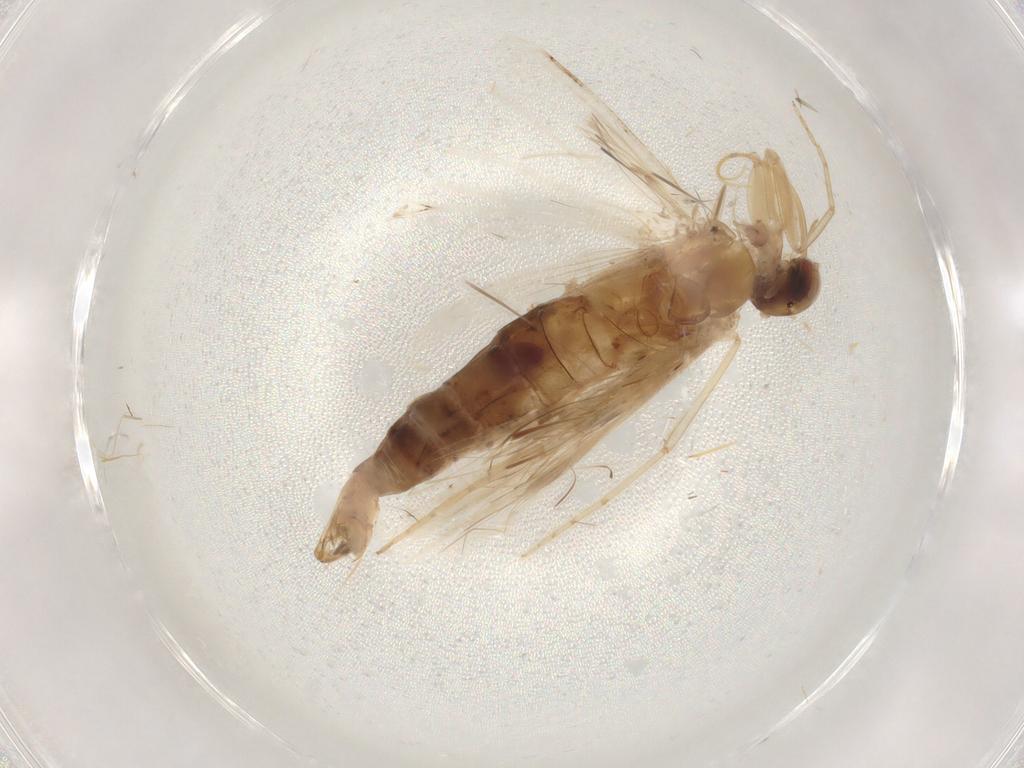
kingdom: Animalia
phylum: Arthropoda
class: Insecta
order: Lepidoptera
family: Erebidae
